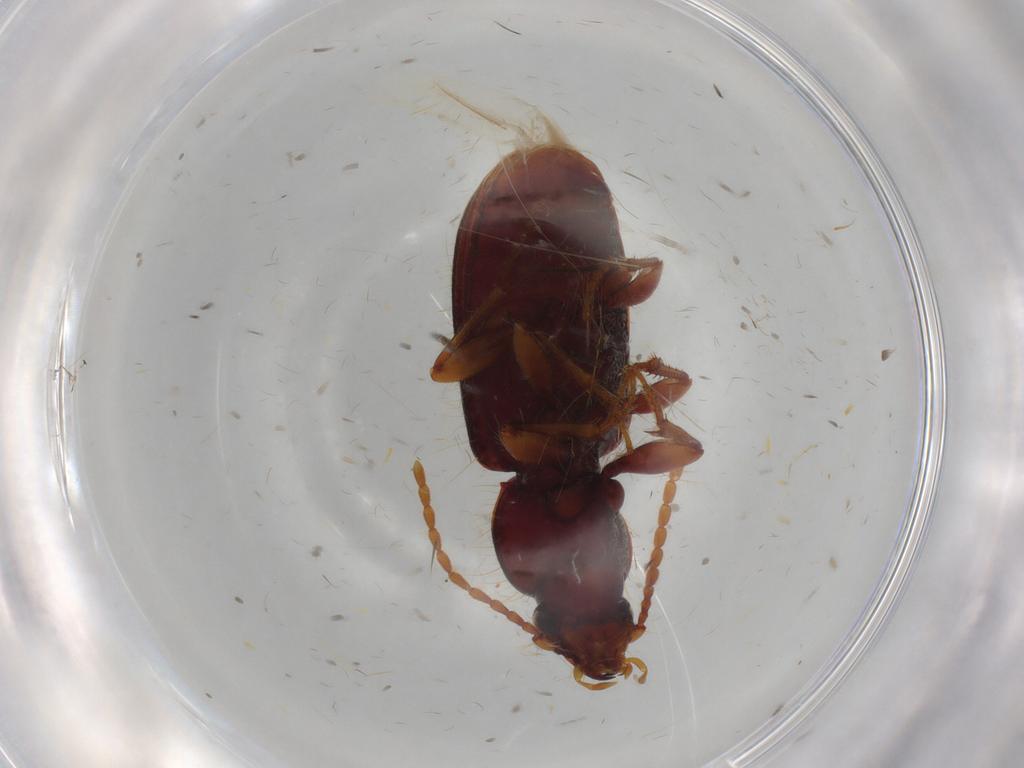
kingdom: Animalia
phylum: Arthropoda
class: Insecta
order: Coleoptera
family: Carabidae
